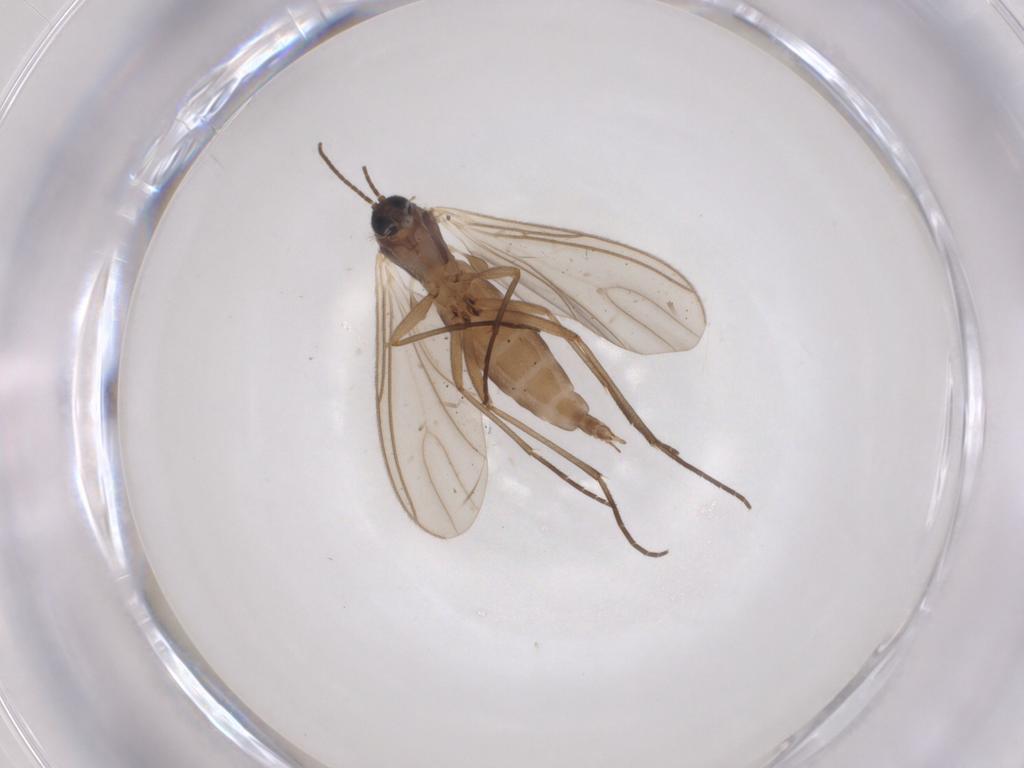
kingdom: Animalia
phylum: Arthropoda
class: Insecta
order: Diptera
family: Sciaridae
